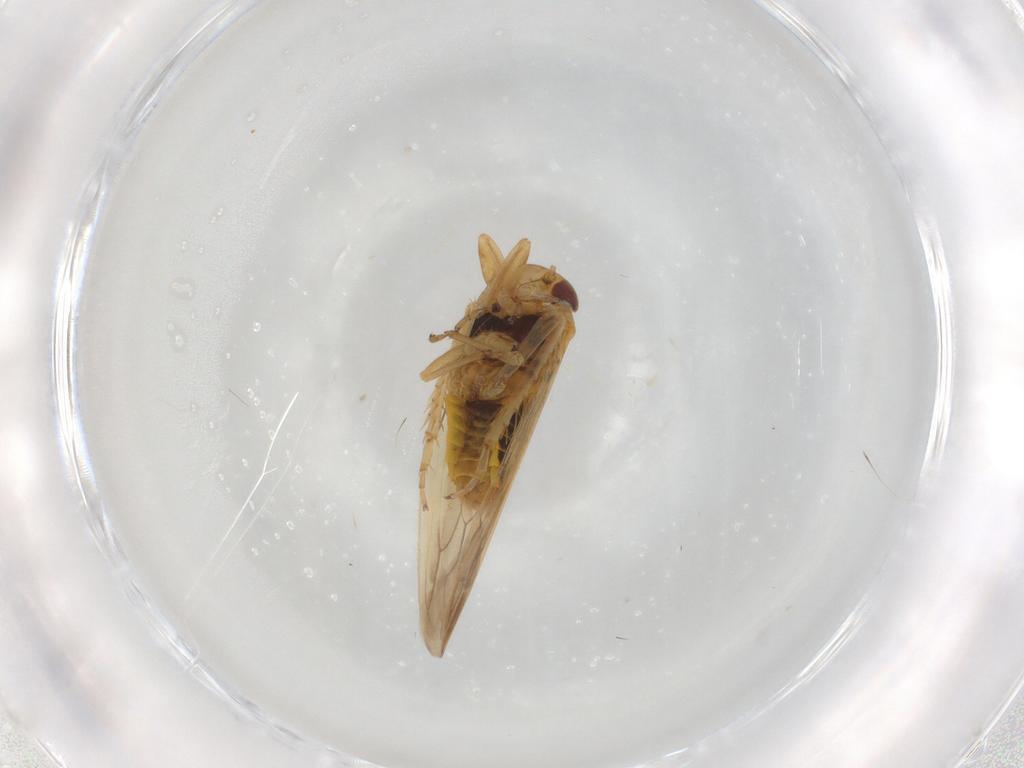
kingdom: Animalia
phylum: Arthropoda
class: Insecta
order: Hemiptera
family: Cicadellidae
